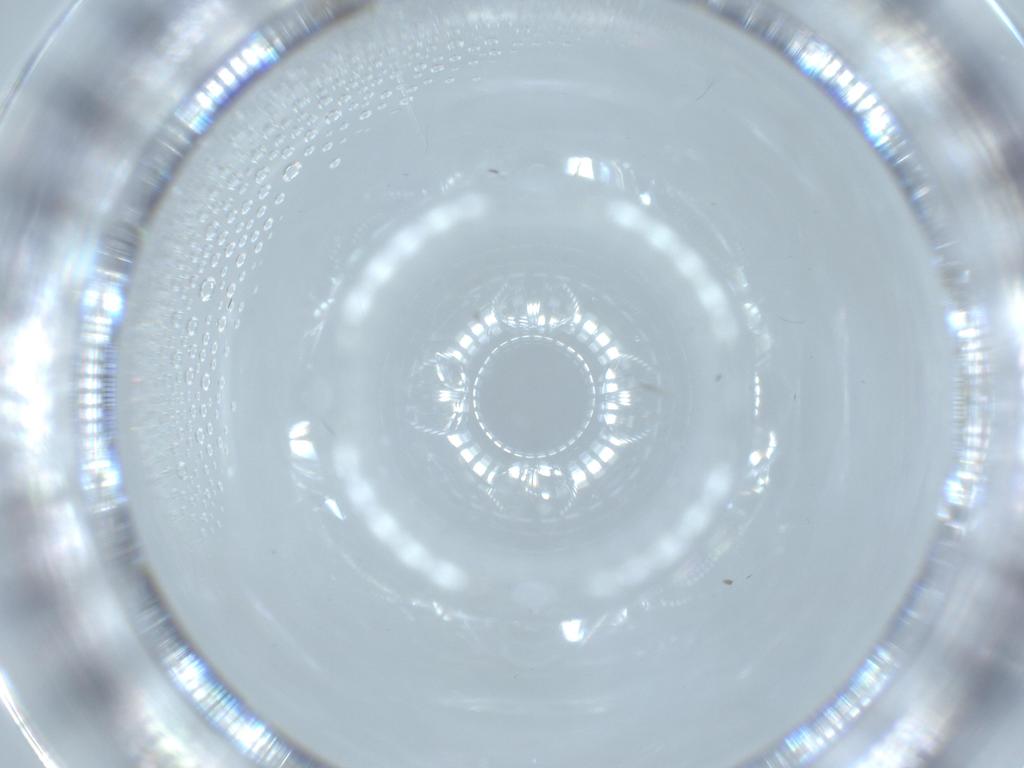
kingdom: Animalia
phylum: Arthropoda
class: Insecta
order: Diptera
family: Dolichopodidae
